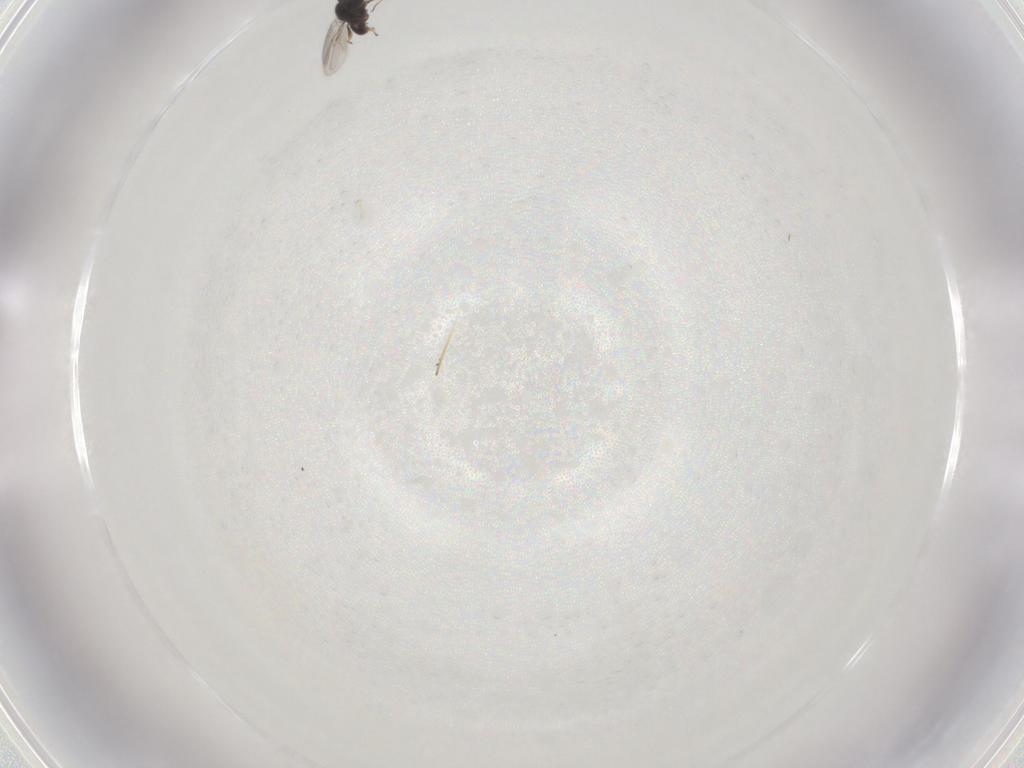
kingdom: Animalia
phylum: Arthropoda
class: Insecta
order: Hymenoptera
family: Scelionidae
